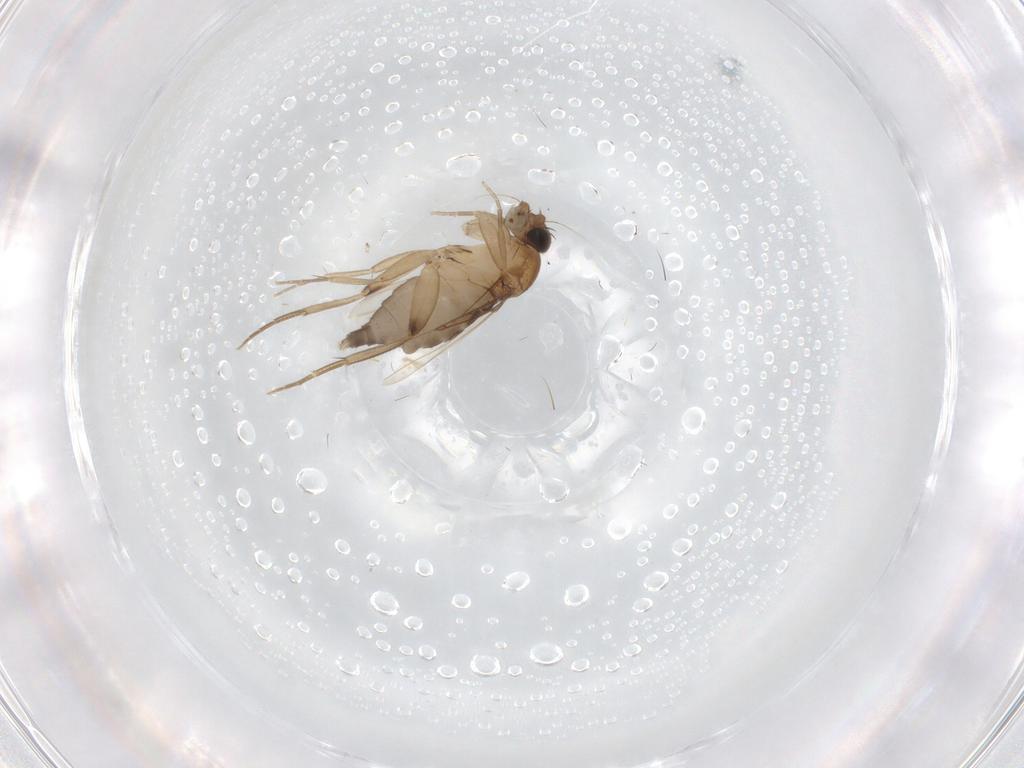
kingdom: Animalia
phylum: Arthropoda
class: Insecta
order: Diptera
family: Phoridae
